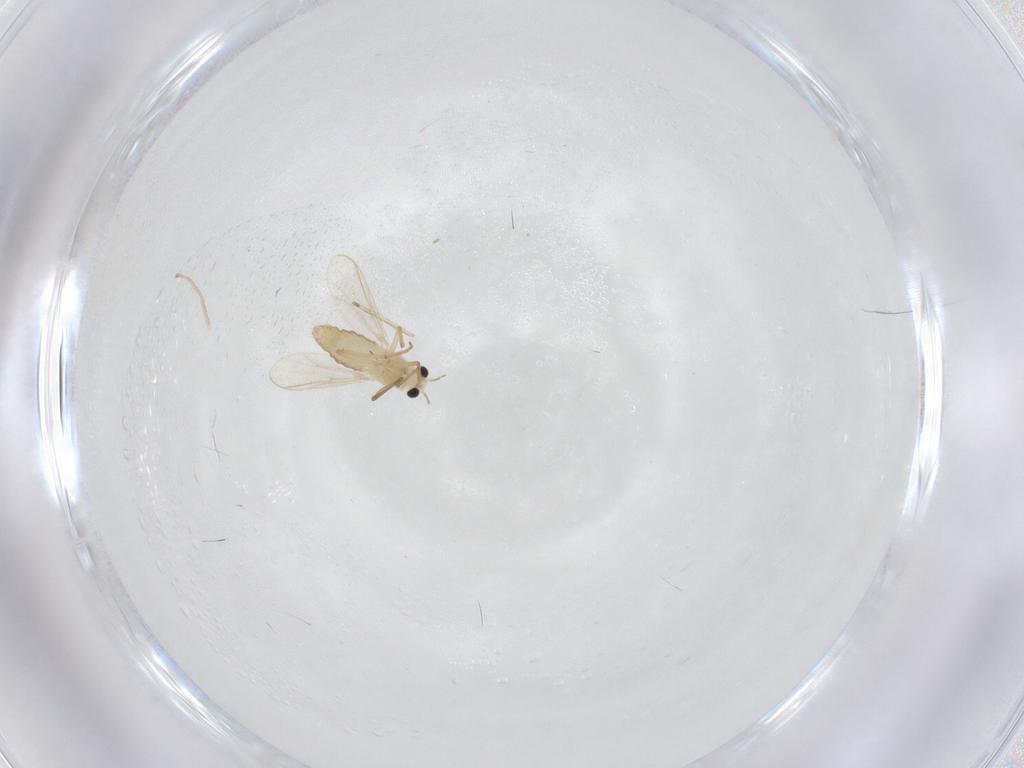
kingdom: Animalia
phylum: Arthropoda
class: Insecta
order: Diptera
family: Chironomidae
